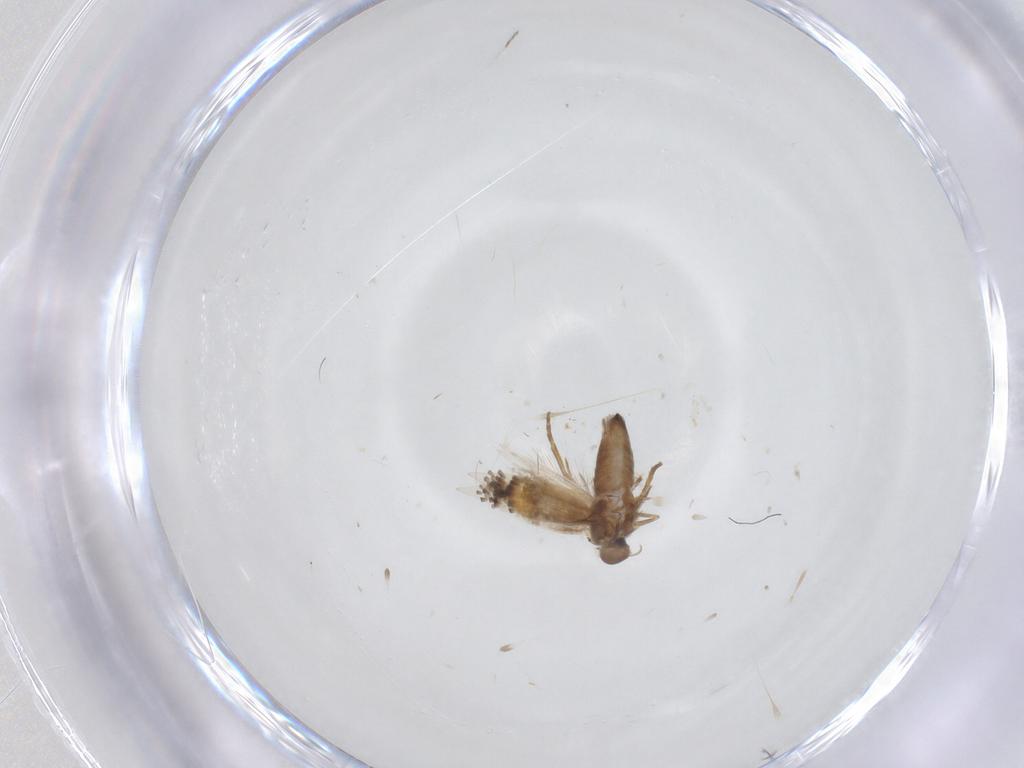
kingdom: Animalia
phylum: Arthropoda
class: Insecta
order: Lepidoptera
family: Heliozelidae
